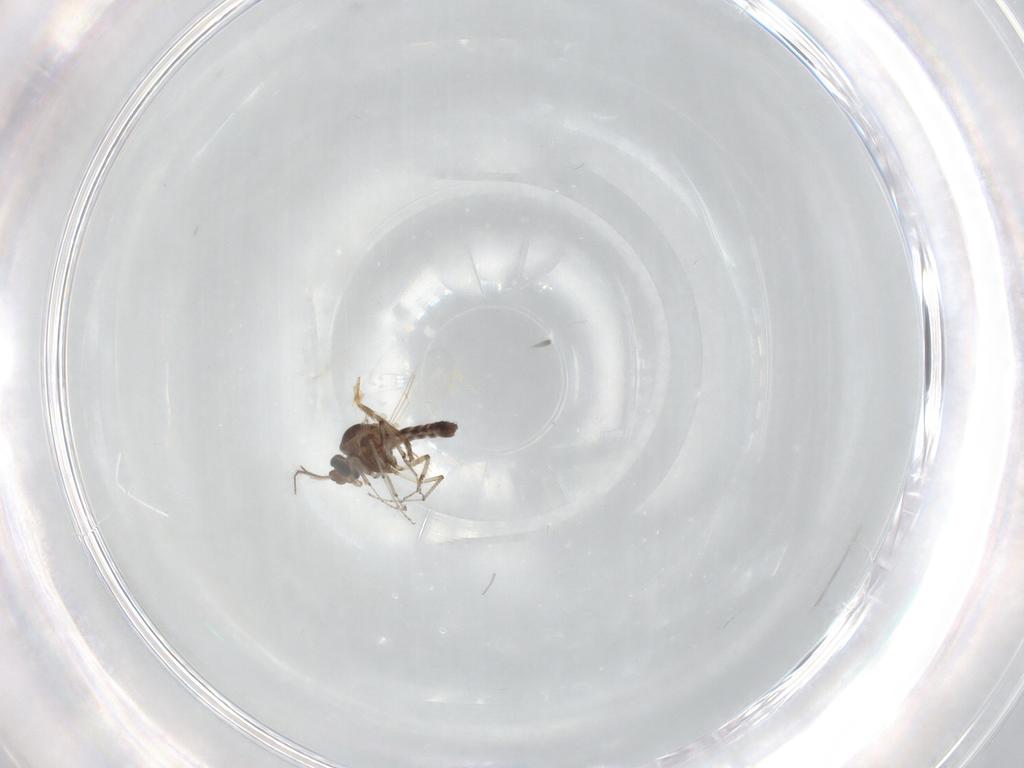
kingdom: Animalia
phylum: Arthropoda
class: Insecta
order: Diptera
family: Ceratopogonidae
